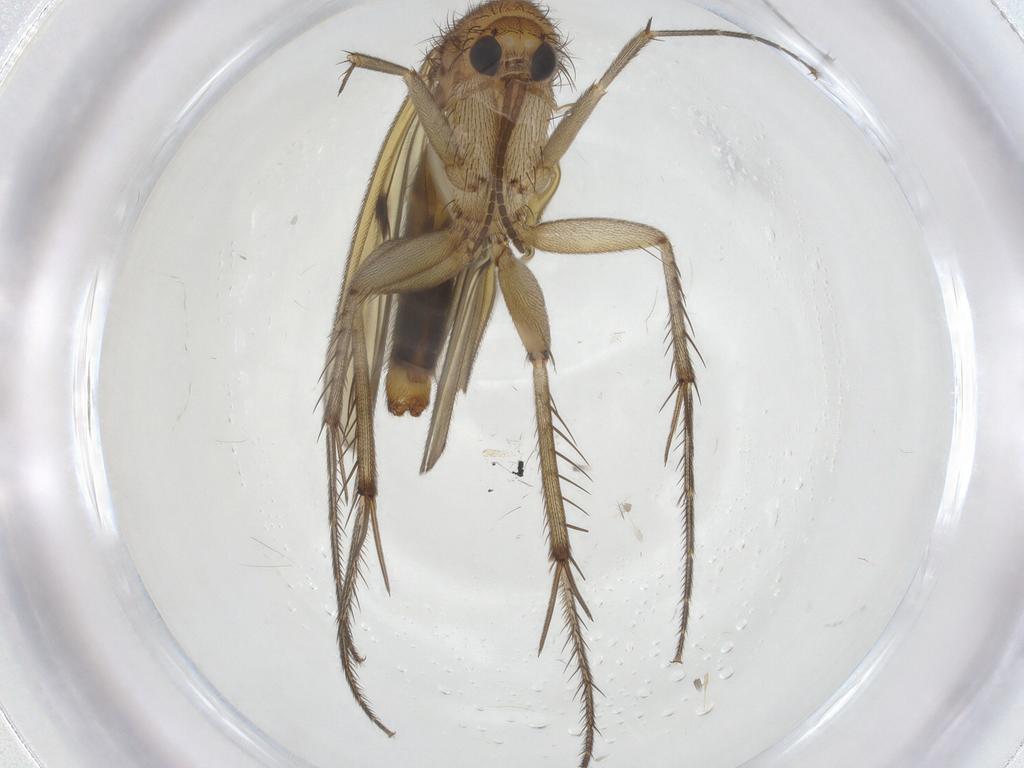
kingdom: Animalia
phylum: Arthropoda
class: Insecta
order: Diptera
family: Mycetophilidae
